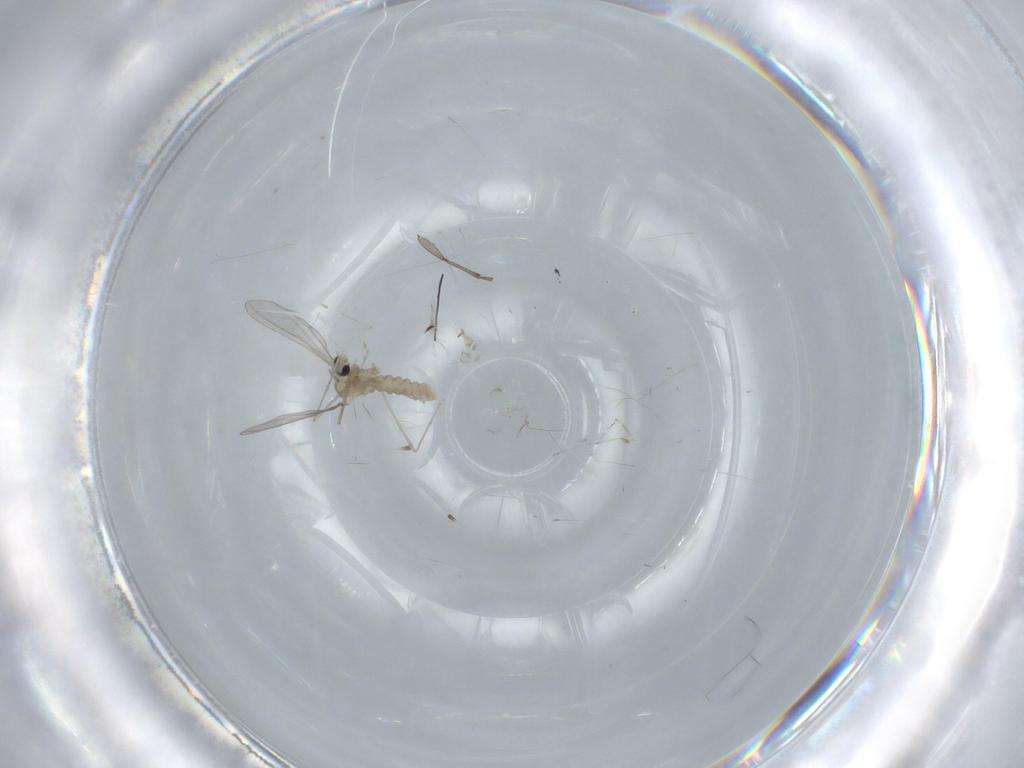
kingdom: Animalia
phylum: Arthropoda
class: Insecta
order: Diptera
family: Cecidomyiidae
